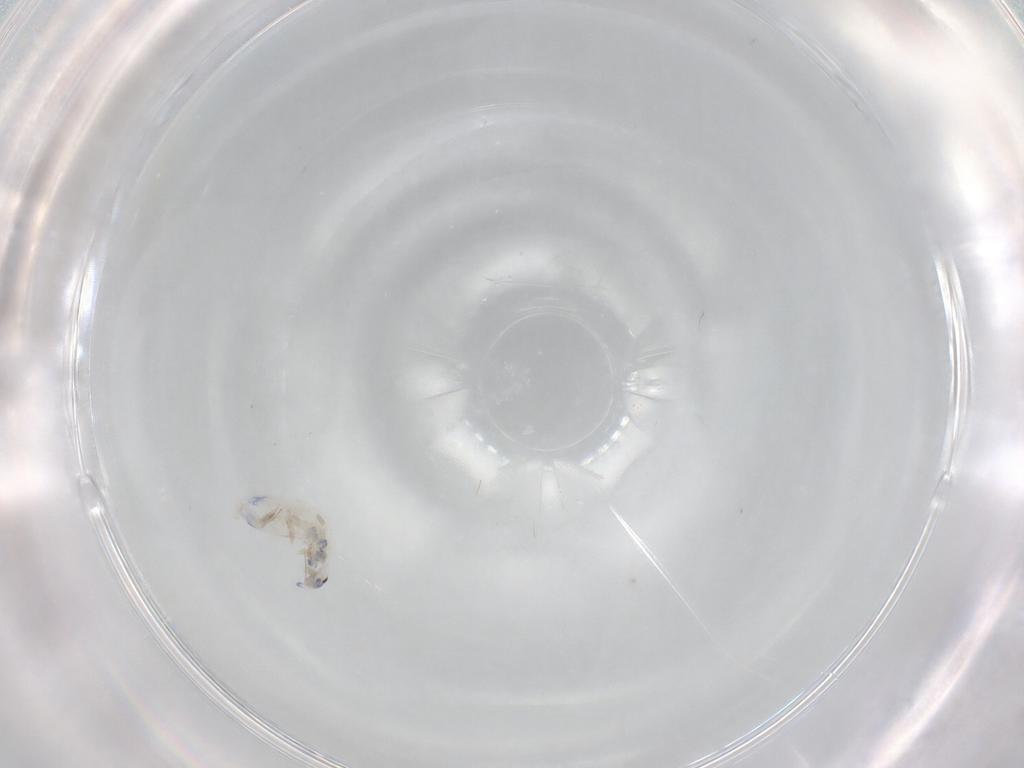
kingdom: Animalia
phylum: Arthropoda
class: Collembola
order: Entomobryomorpha
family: Entomobryidae
